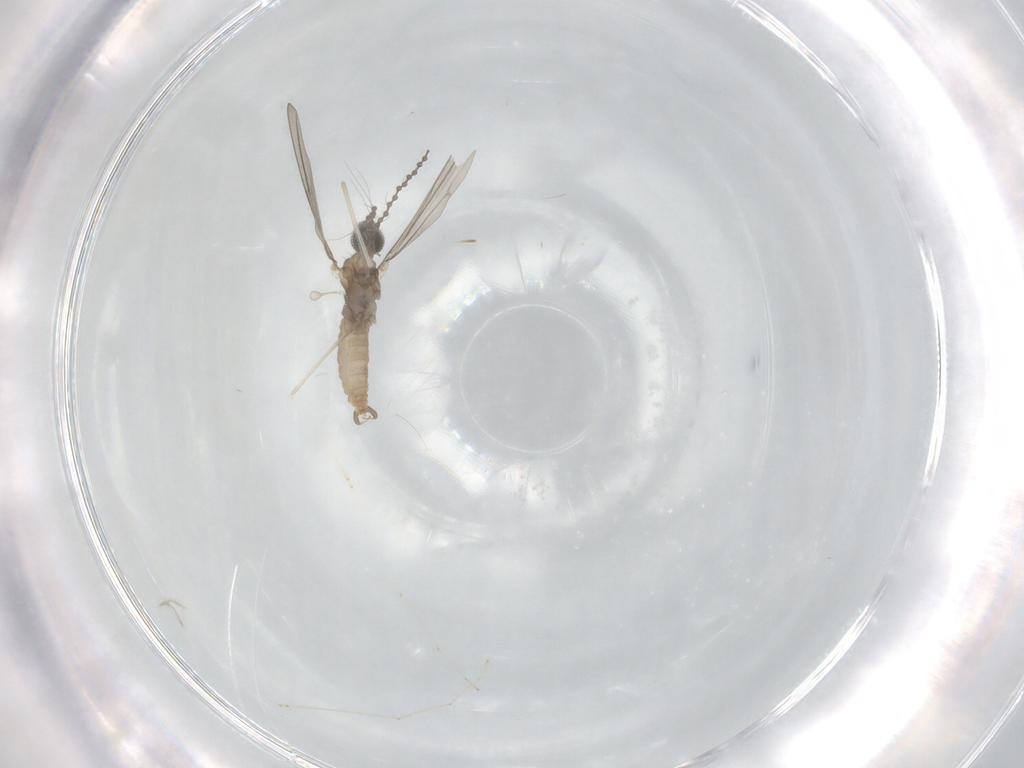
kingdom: Animalia
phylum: Arthropoda
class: Insecta
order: Diptera
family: Cecidomyiidae
